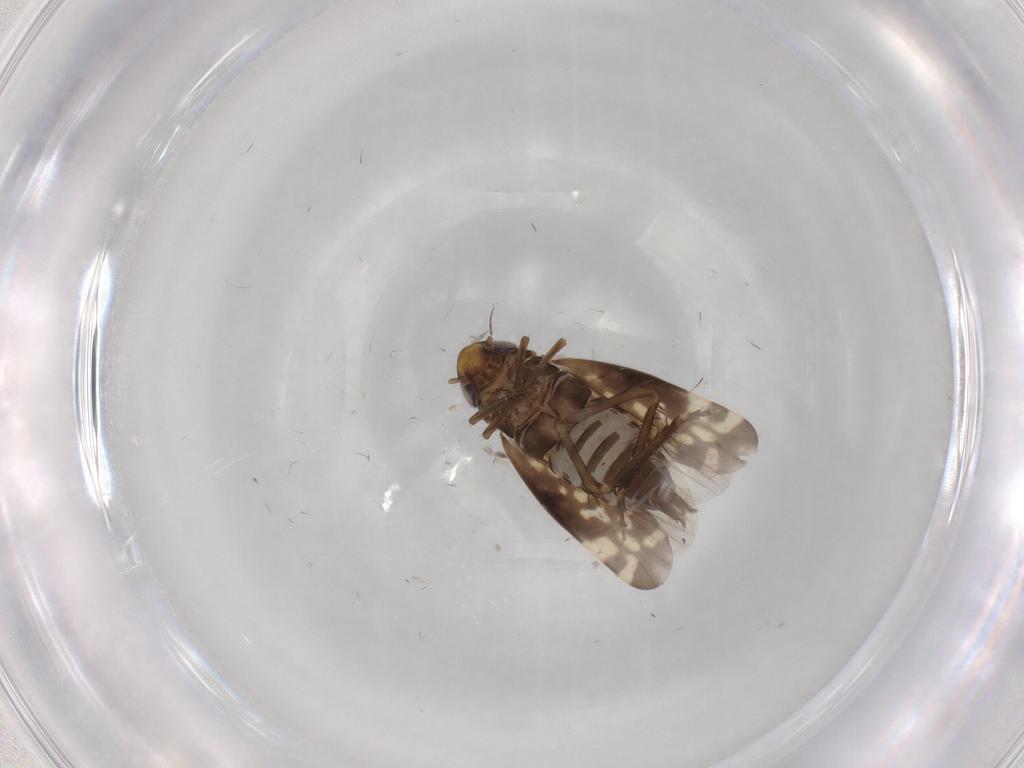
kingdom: Animalia
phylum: Arthropoda
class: Insecta
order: Hemiptera
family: Cicadellidae
